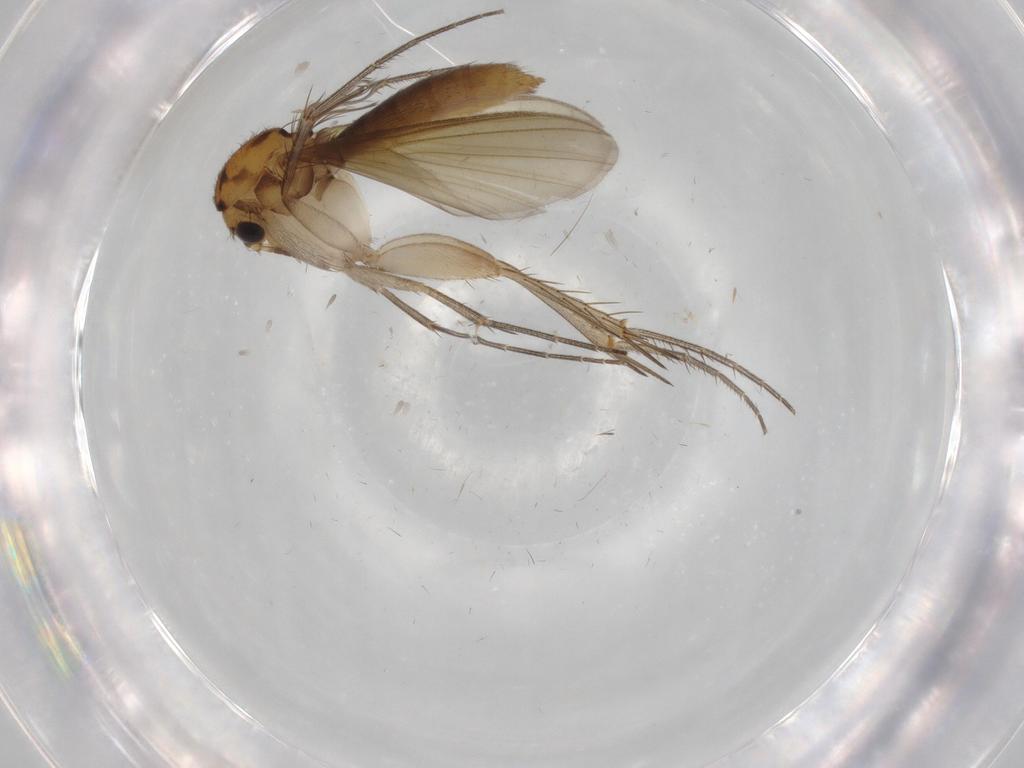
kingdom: Animalia
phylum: Arthropoda
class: Insecta
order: Diptera
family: Sciaridae
